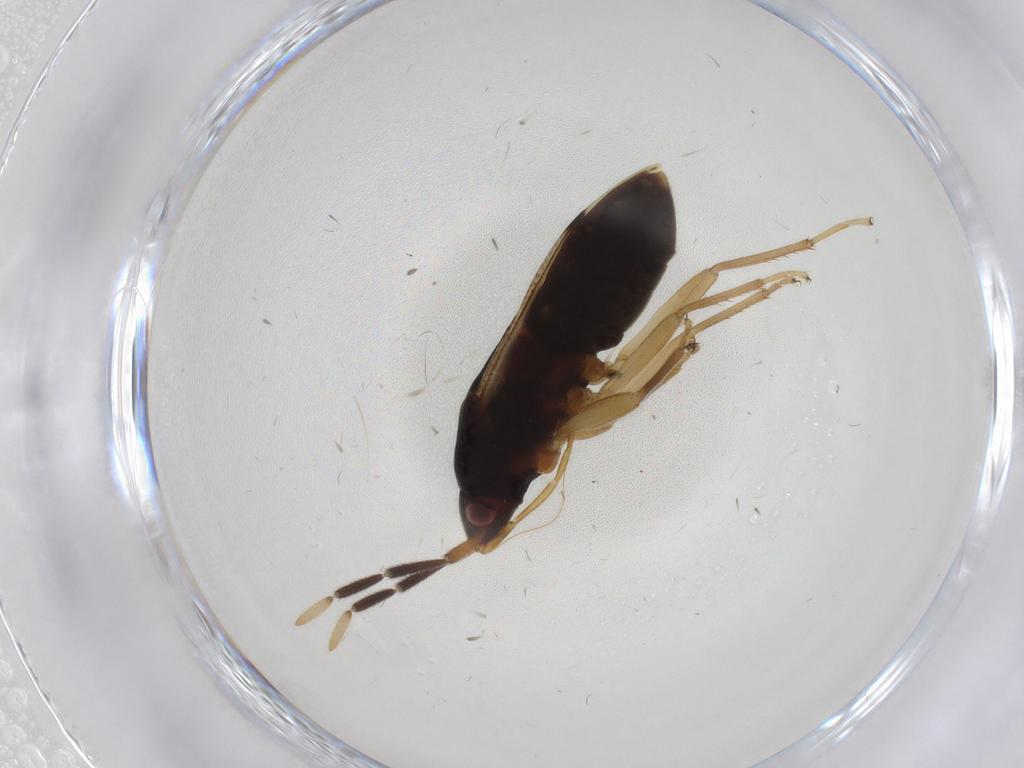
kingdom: Animalia
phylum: Arthropoda
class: Insecta
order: Hemiptera
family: Rhyparochromidae
